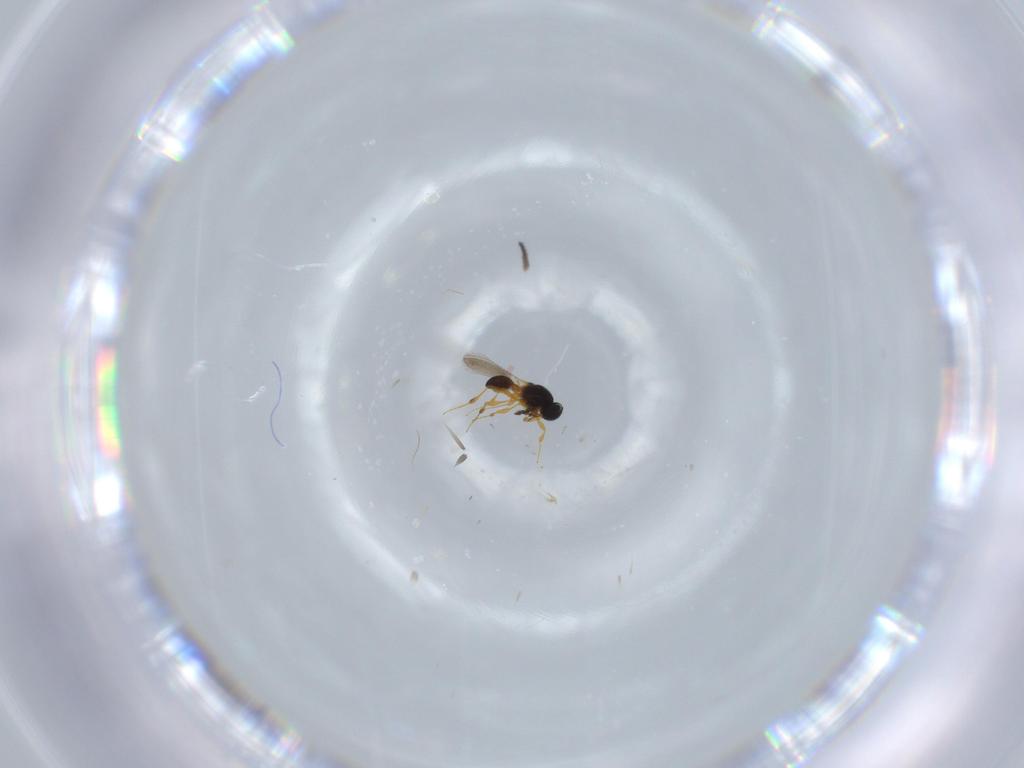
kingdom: Animalia
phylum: Arthropoda
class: Insecta
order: Hymenoptera
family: Platygastridae
